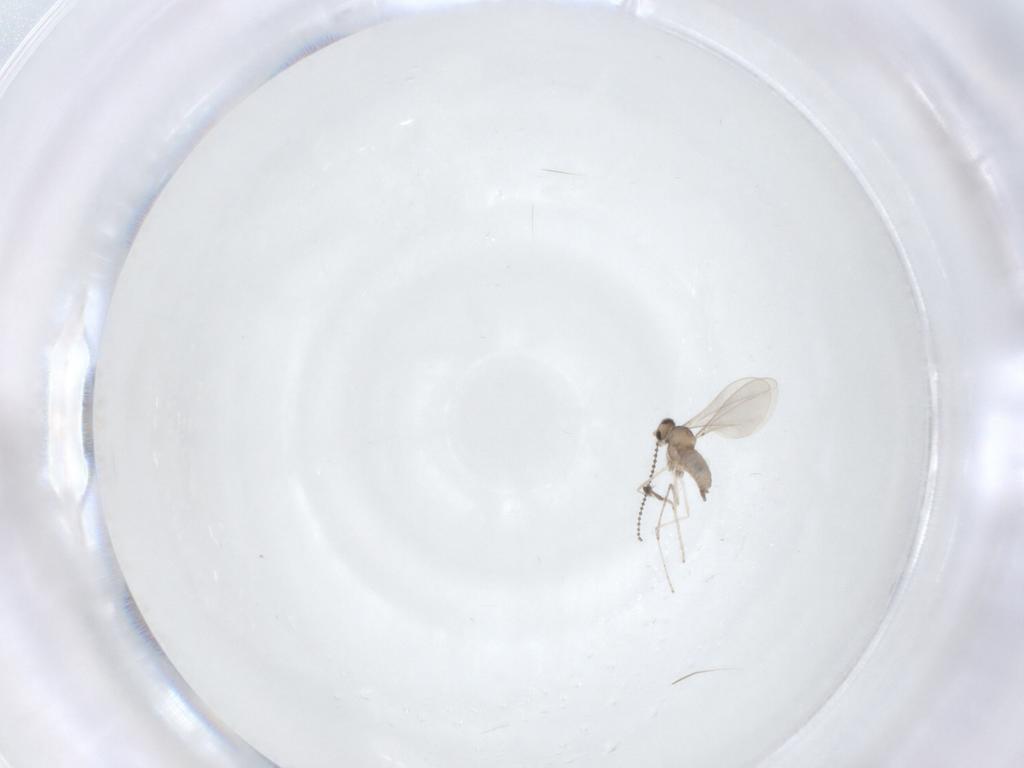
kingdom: Animalia
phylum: Arthropoda
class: Insecta
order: Diptera
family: Cecidomyiidae
